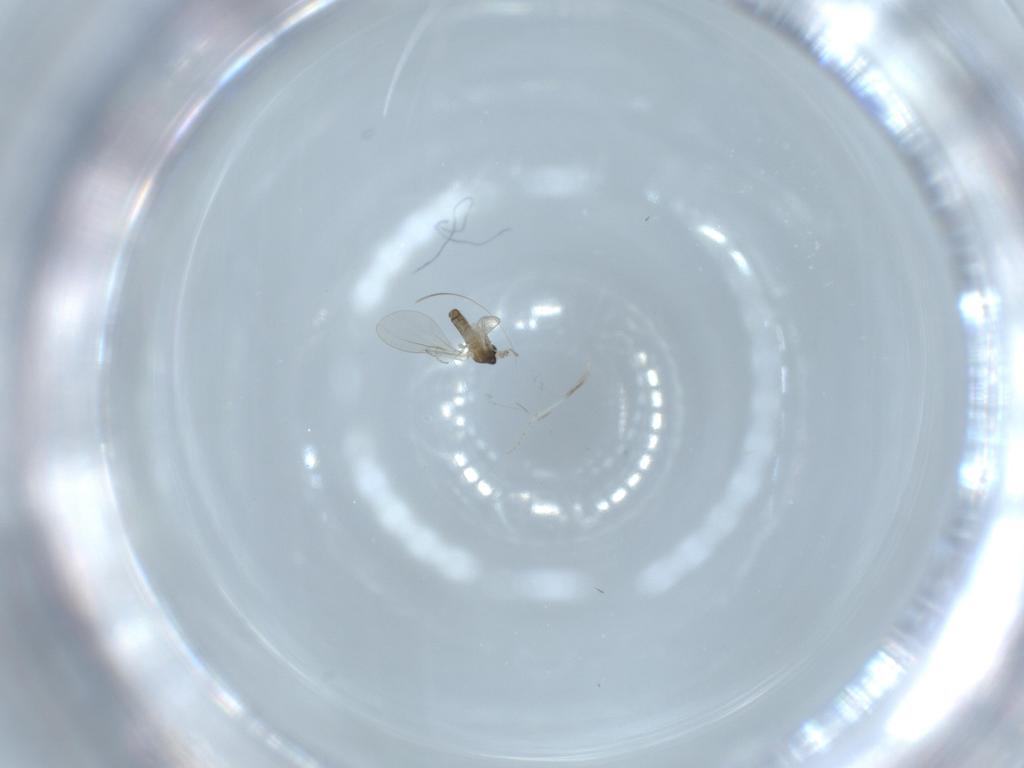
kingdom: Animalia
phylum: Arthropoda
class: Insecta
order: Diptera
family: Cecidomyiidae
